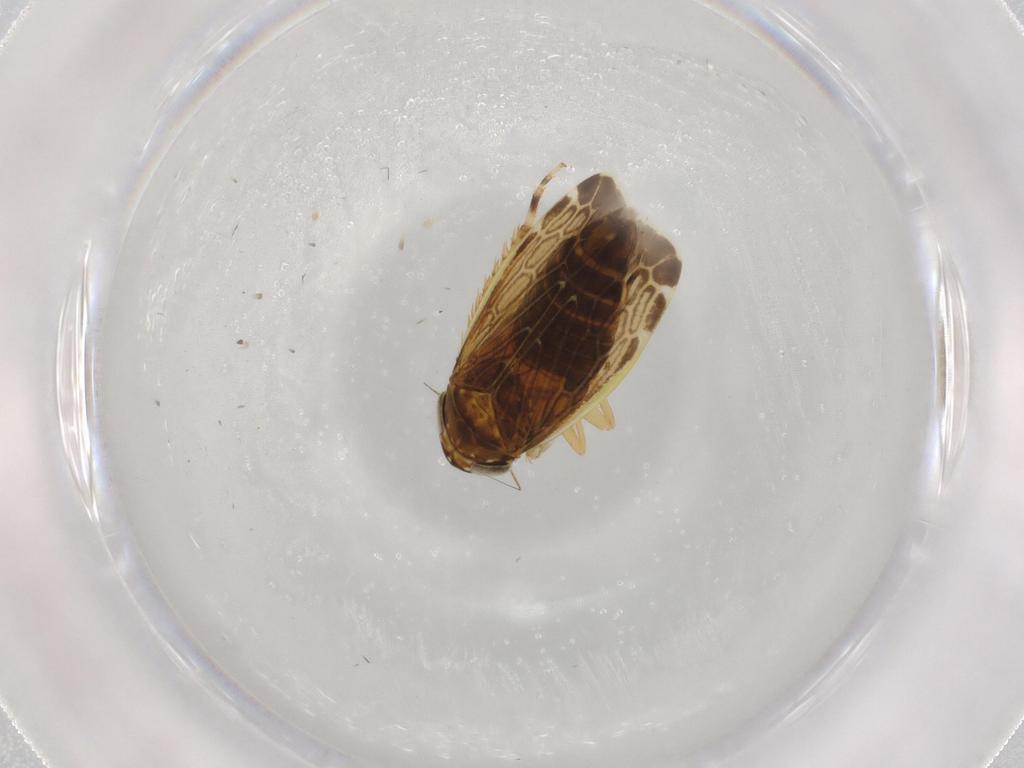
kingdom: Animalia
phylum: Arthropoda
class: Insecta
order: Hemiptera
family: Cicadellidae
